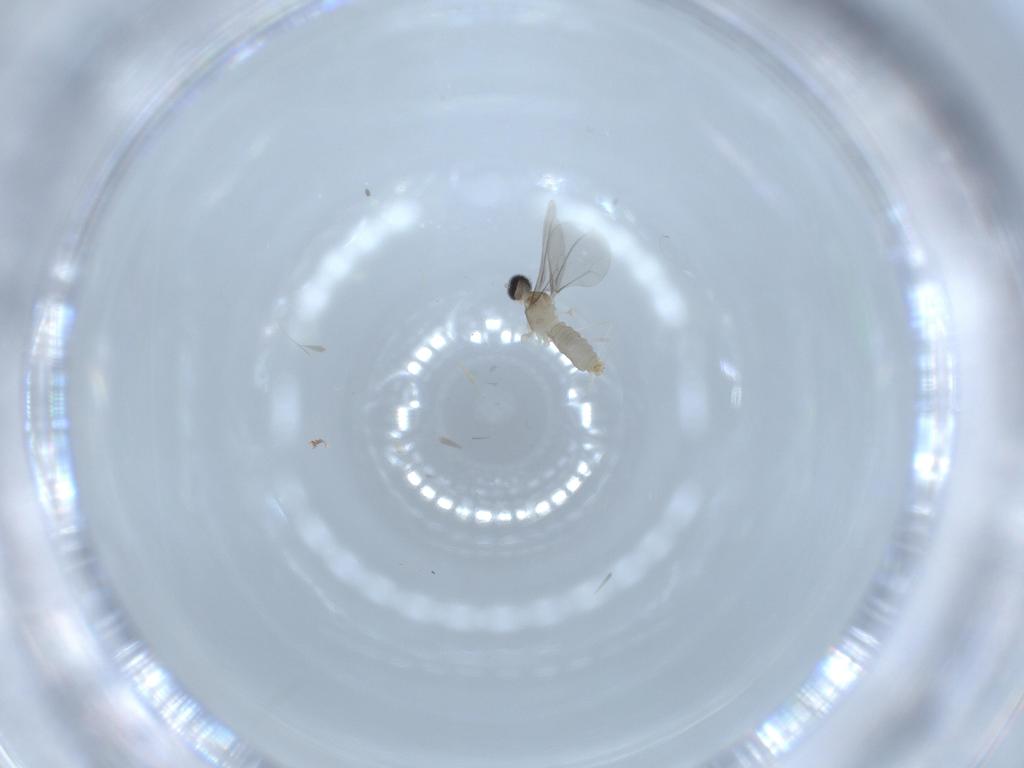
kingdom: Animalia
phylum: Arthropoda
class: Insecta
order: Diptera
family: Hybotidae
